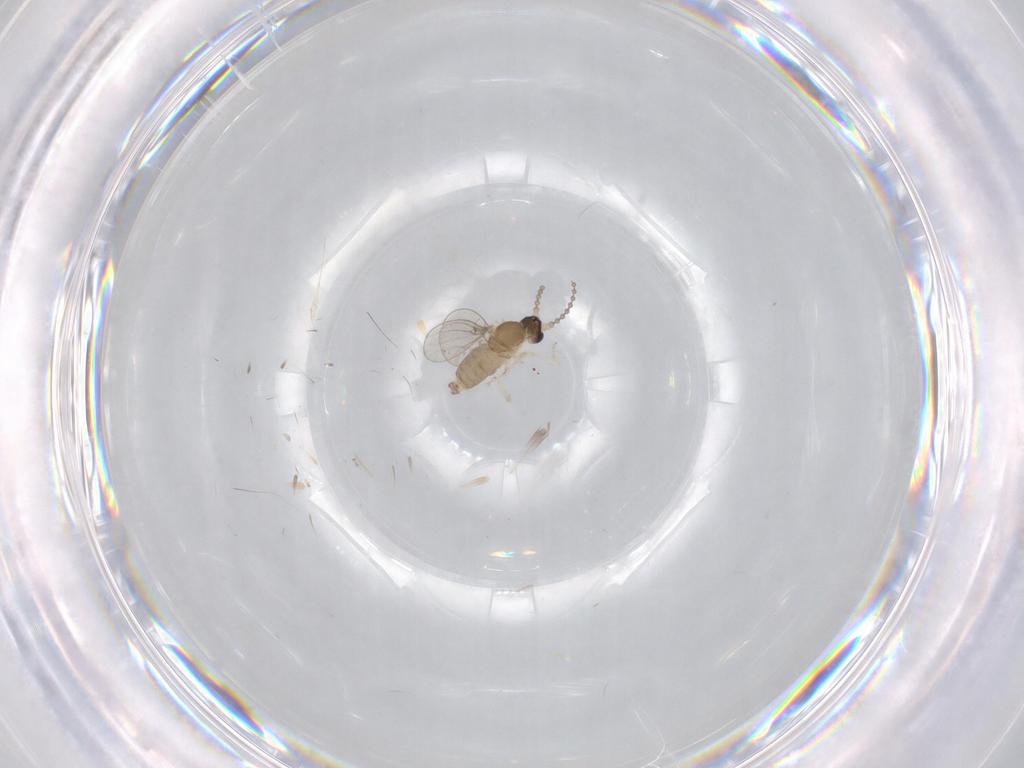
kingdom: Animalia
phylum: Arthropoda
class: Insecta
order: Diptera
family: Cecidomyiidae
